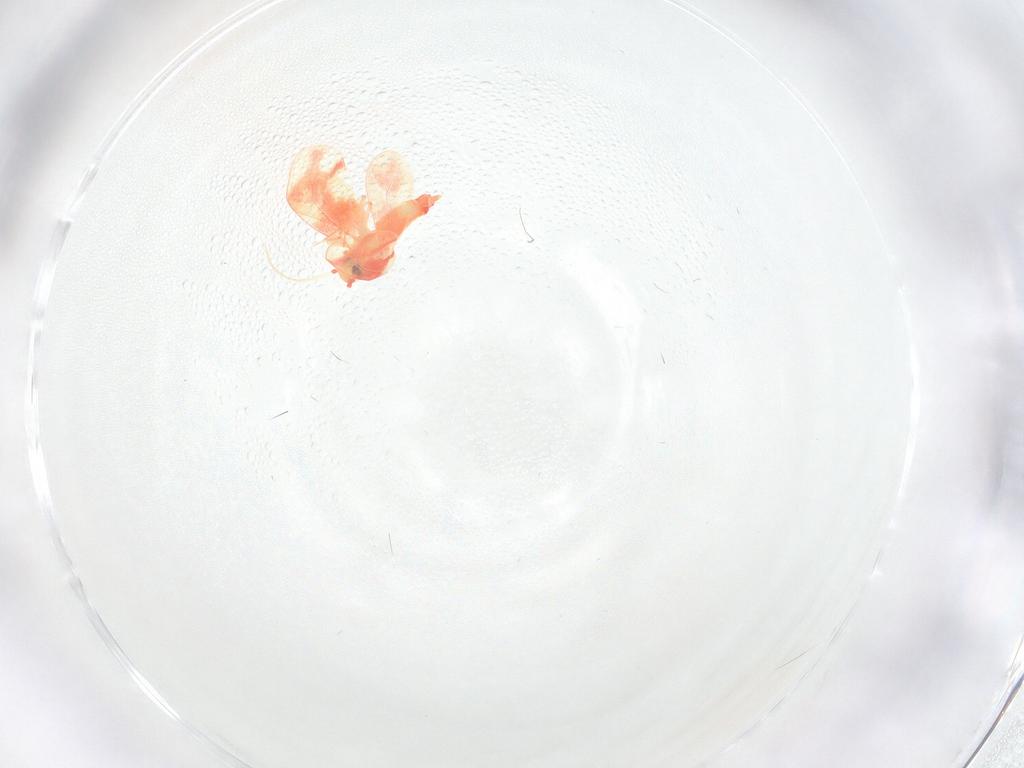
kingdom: Animalia
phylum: Arthropoda
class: Insecta
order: Hemiptera
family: Aleyrodidae
